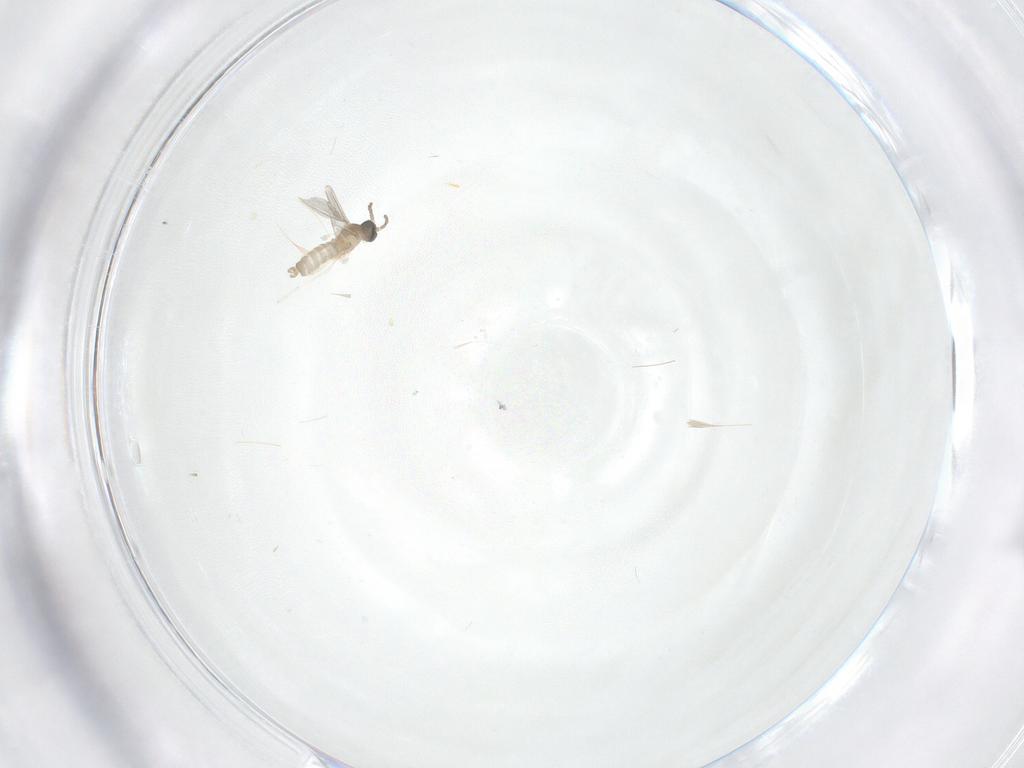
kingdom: Animalia
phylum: Arthropoda
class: Insecta
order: Diptera
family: Cecidomyiidae
